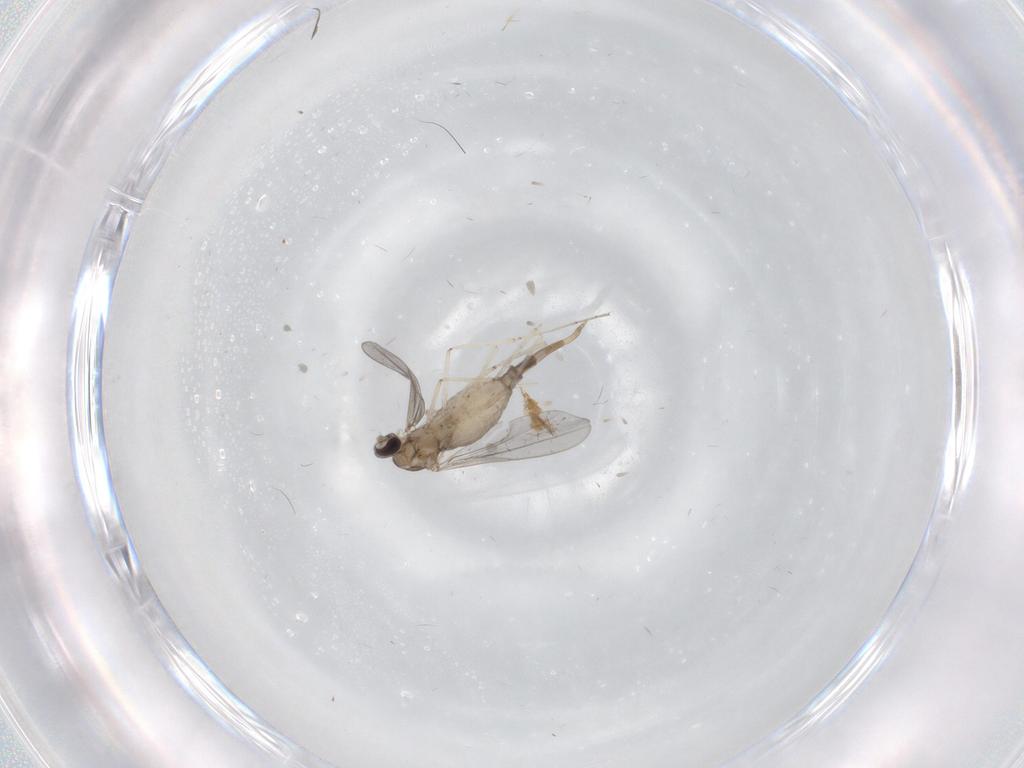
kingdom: Animalia
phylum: Arthropoda
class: Insecta
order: Diptera
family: Cecidomyiidae
